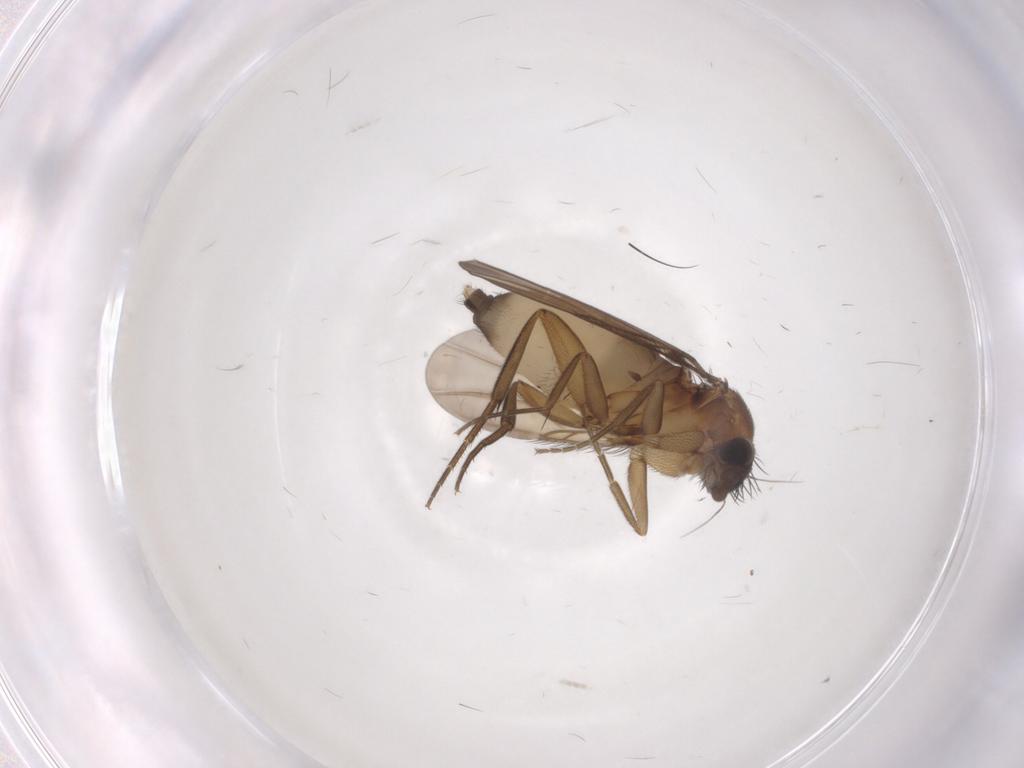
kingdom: Animalia
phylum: Arthropoda
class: Insecta
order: Diptera
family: Phoridae
